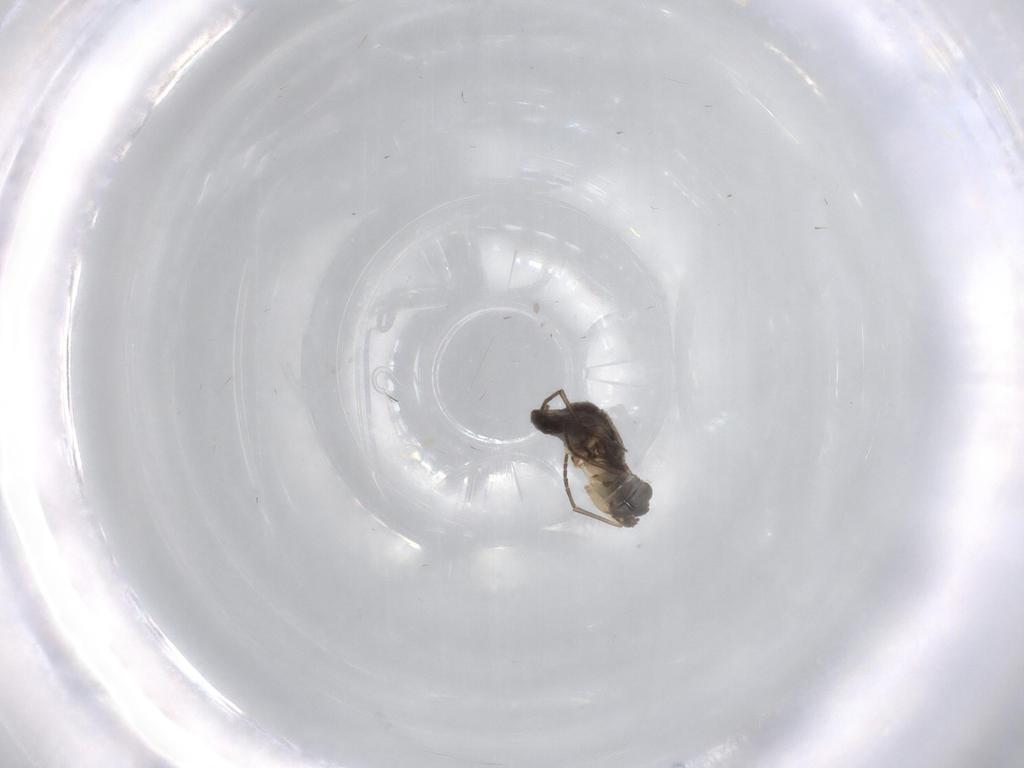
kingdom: Animalia
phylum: Arthropoda
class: Insecta
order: Diptera
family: Sciaridae
